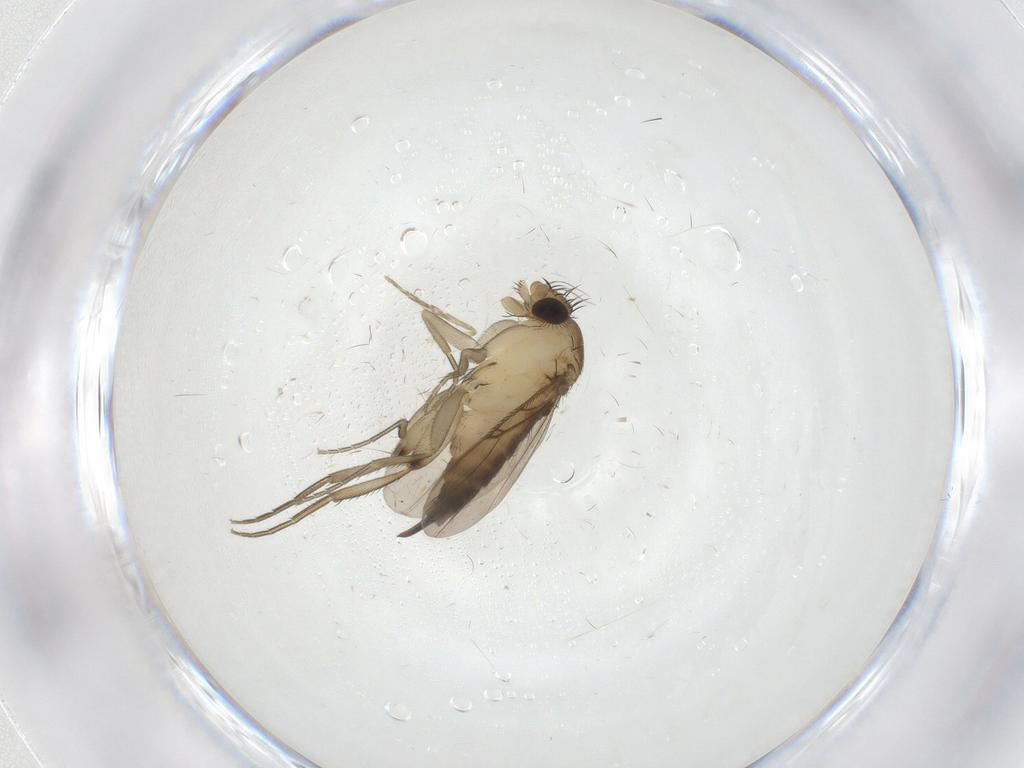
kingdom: Animalia
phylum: Arthropoda
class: Insecta
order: Diptera
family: Phoridae
